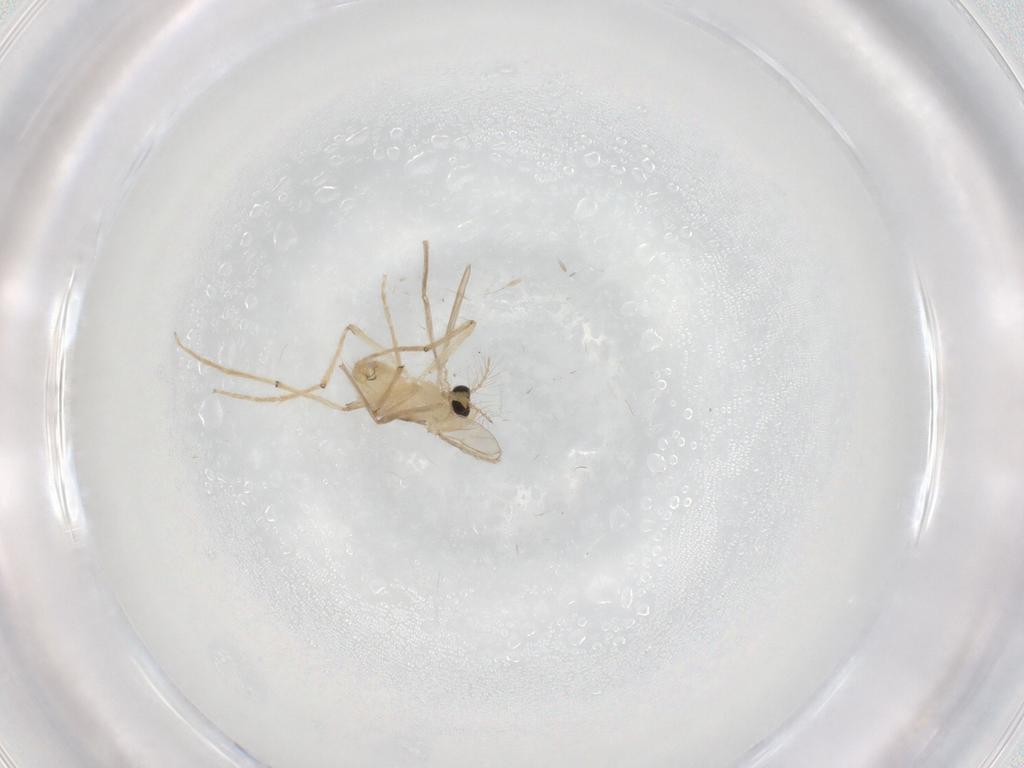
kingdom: Animalia
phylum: Arthropoda
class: Insecta
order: Diptera
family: Chironomidae
